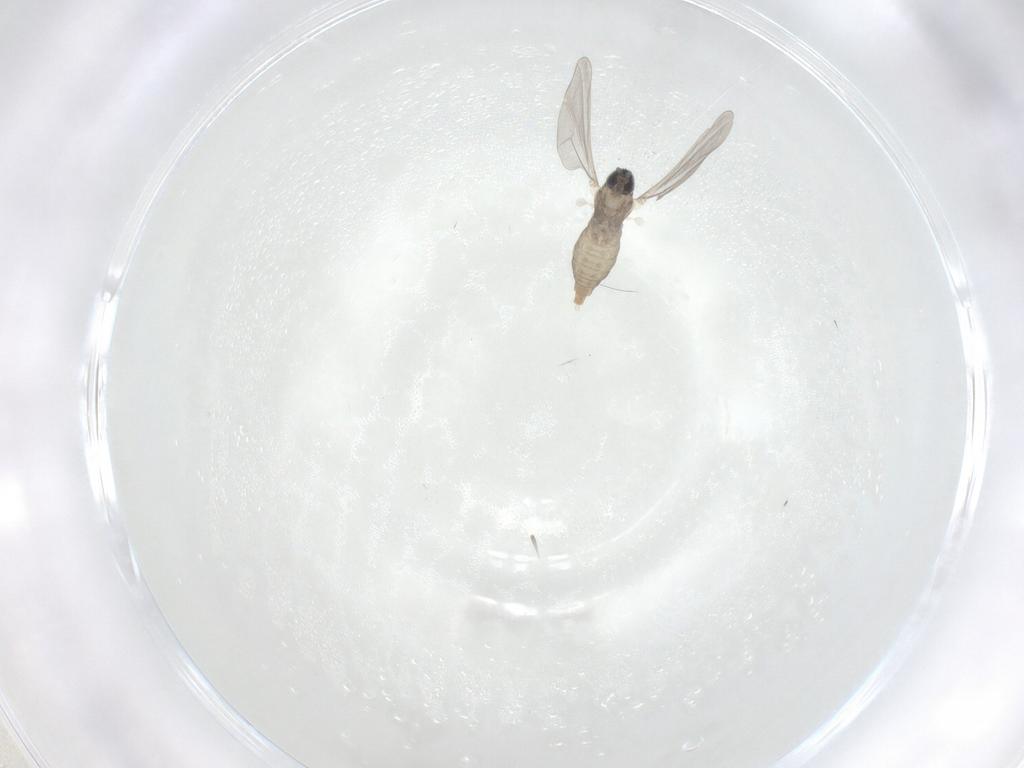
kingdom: Animalia
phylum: Arthropoda
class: Insecta
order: Diptera
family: Cecidomyiidae
